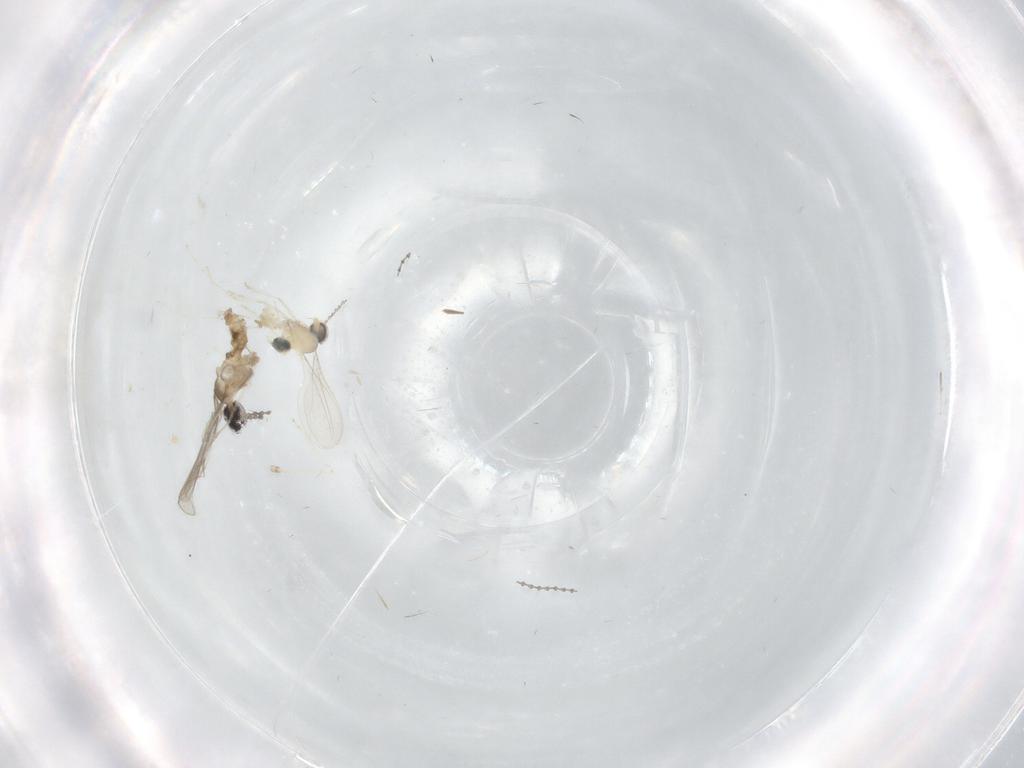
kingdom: Animalia
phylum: Arthropoda
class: Insecta
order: Diptera
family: Cecidomyiidae
